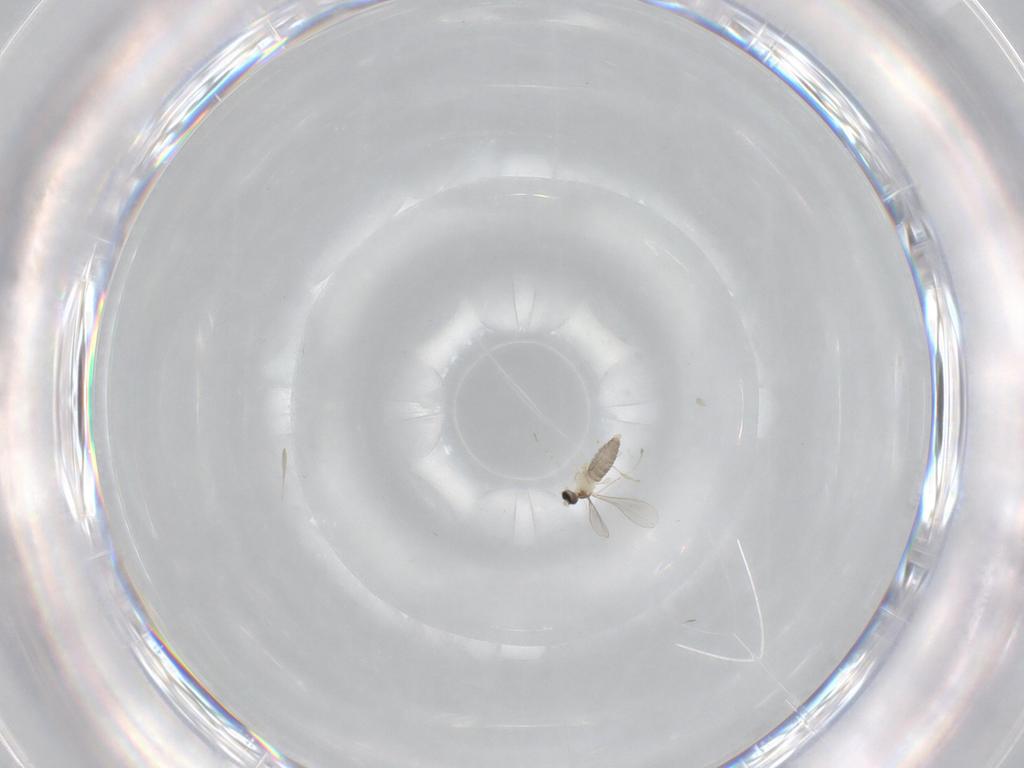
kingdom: Animalia
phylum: Arthropoda
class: Insecta
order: Diptera
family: Cecidomyiidae
